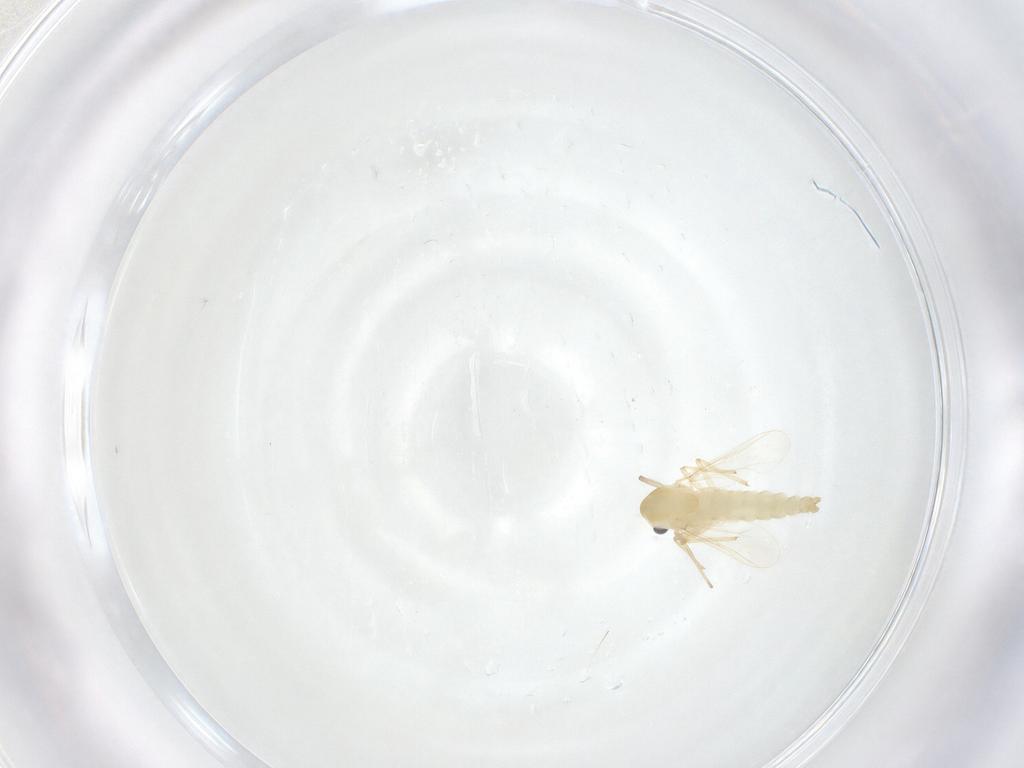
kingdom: Animalia
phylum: Arthropoda
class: Insecta
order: Diptera
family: Chironomidae
